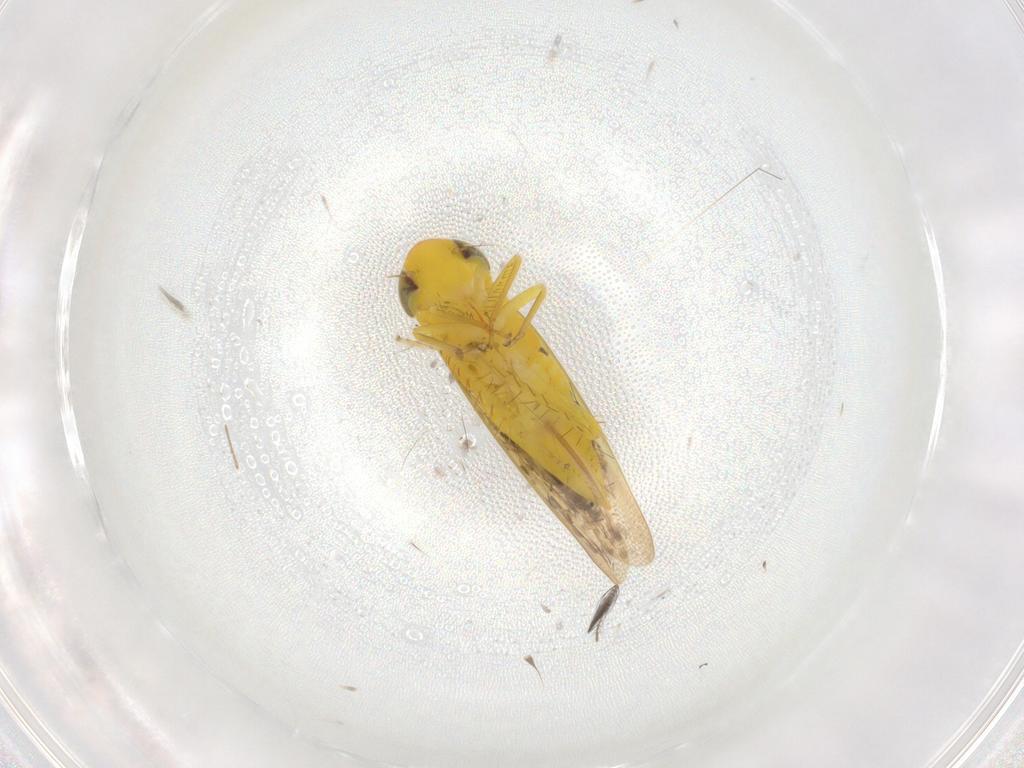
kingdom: Animalia
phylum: Arthropoda
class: Insecta
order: Hemiptera
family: Cicadellidae
